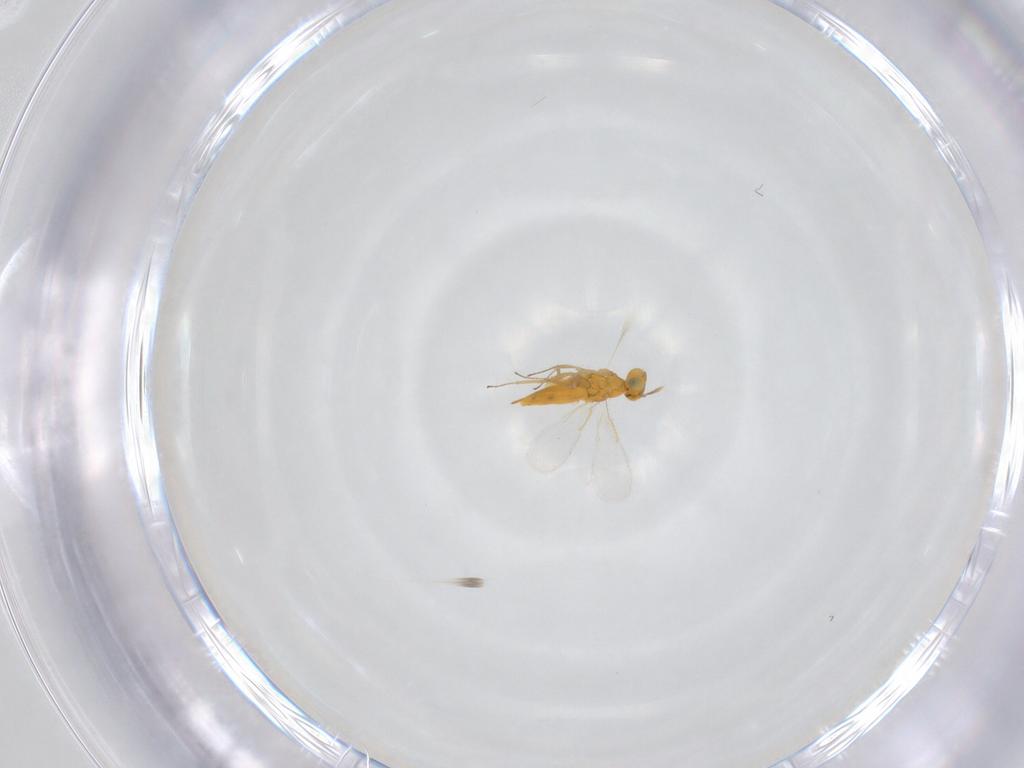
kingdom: Animalia
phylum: Arthropoda
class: Insecta
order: Hymenoptera
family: Aphelinidae
